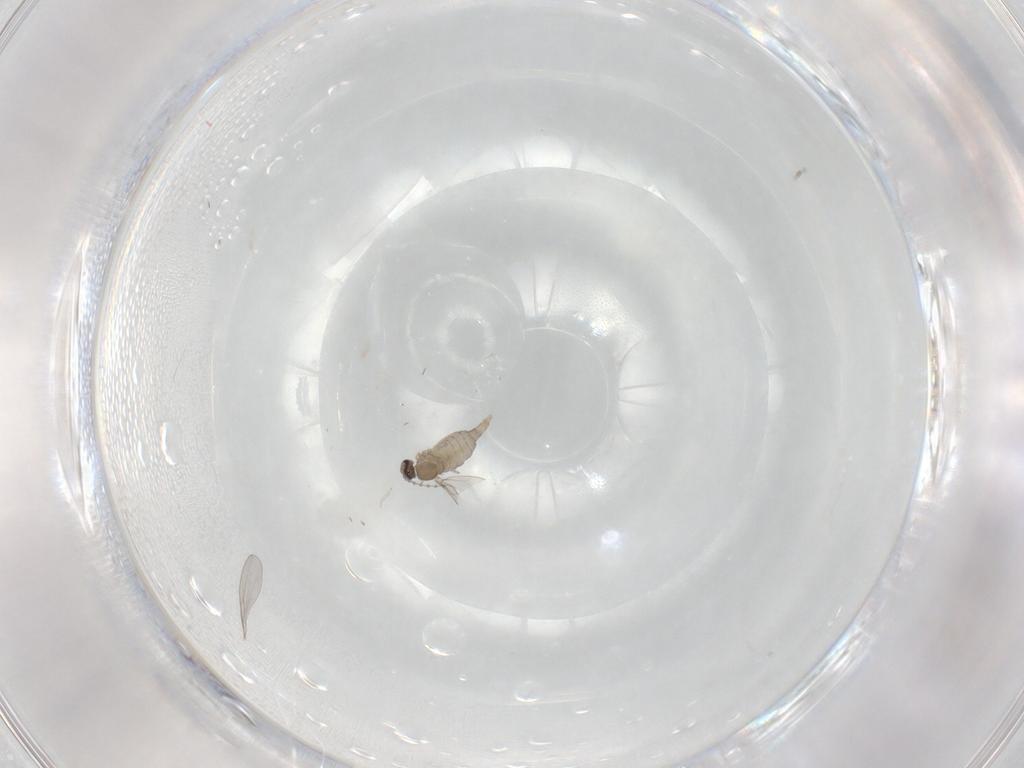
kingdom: Animalia
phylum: Arthropoda
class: Insecta
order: Diptera
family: Cecidomyiidae
